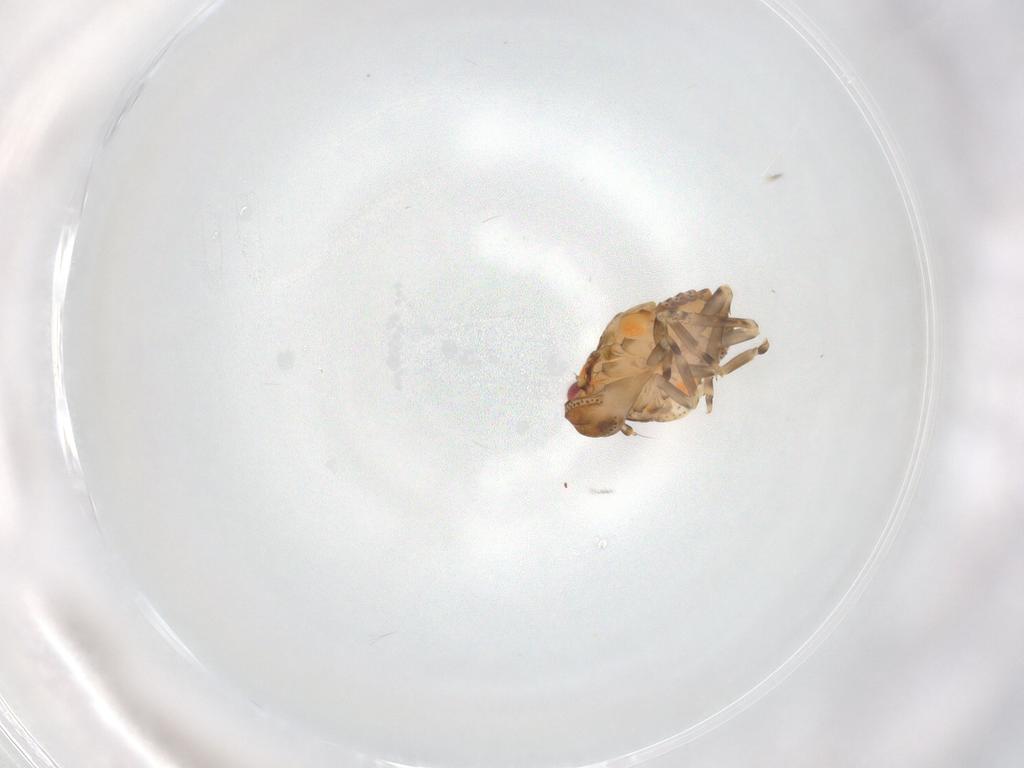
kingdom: Animalia
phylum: Arthropoda
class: Insecta
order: Hemiptera
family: Flatidae
